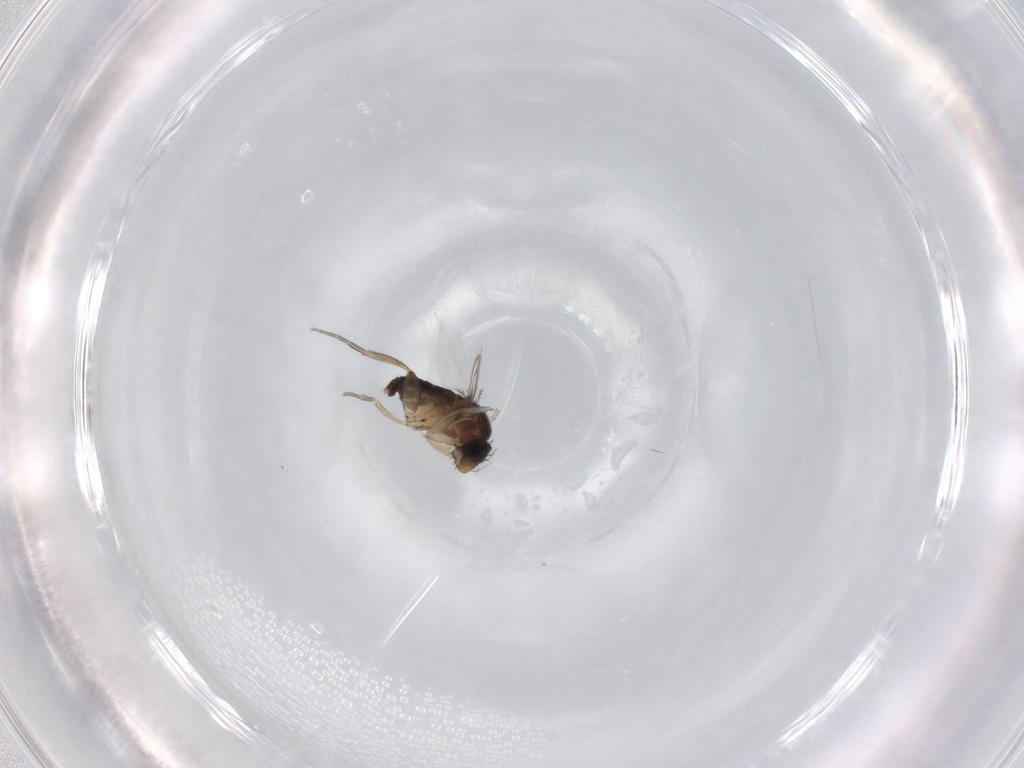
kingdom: Animalia
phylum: Arthropoda
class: Insecta
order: Diptera
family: Phoridae
